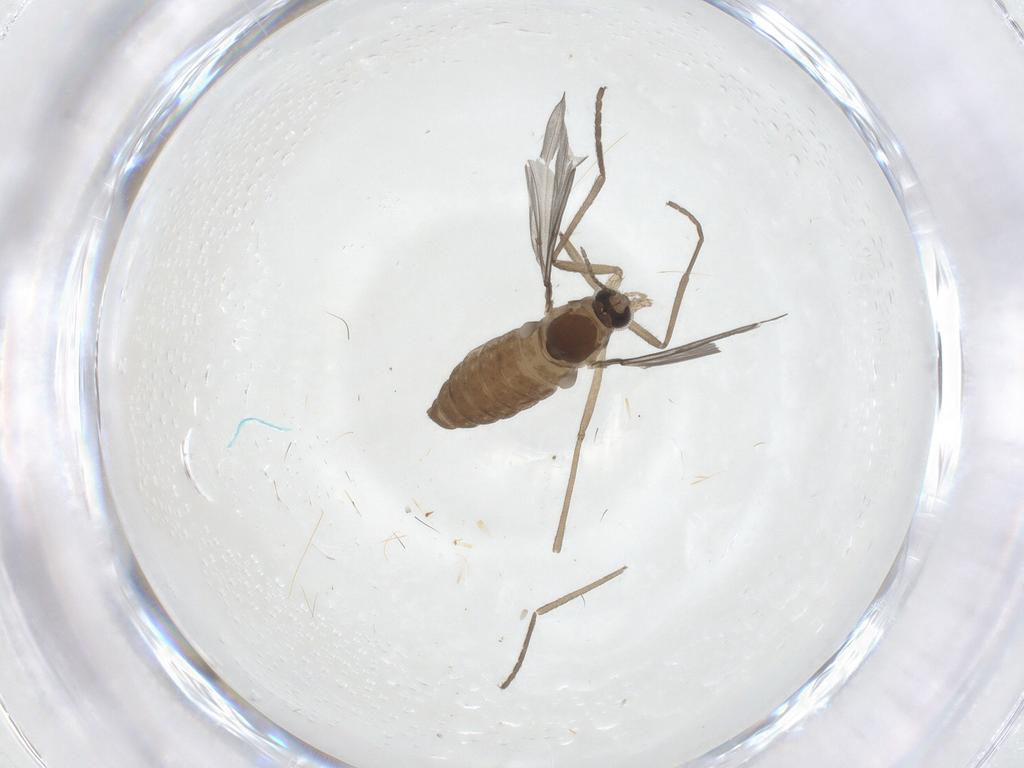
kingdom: Animalia
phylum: Arthropoda
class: Insecta
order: Diptera
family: Cecidomyiidae
